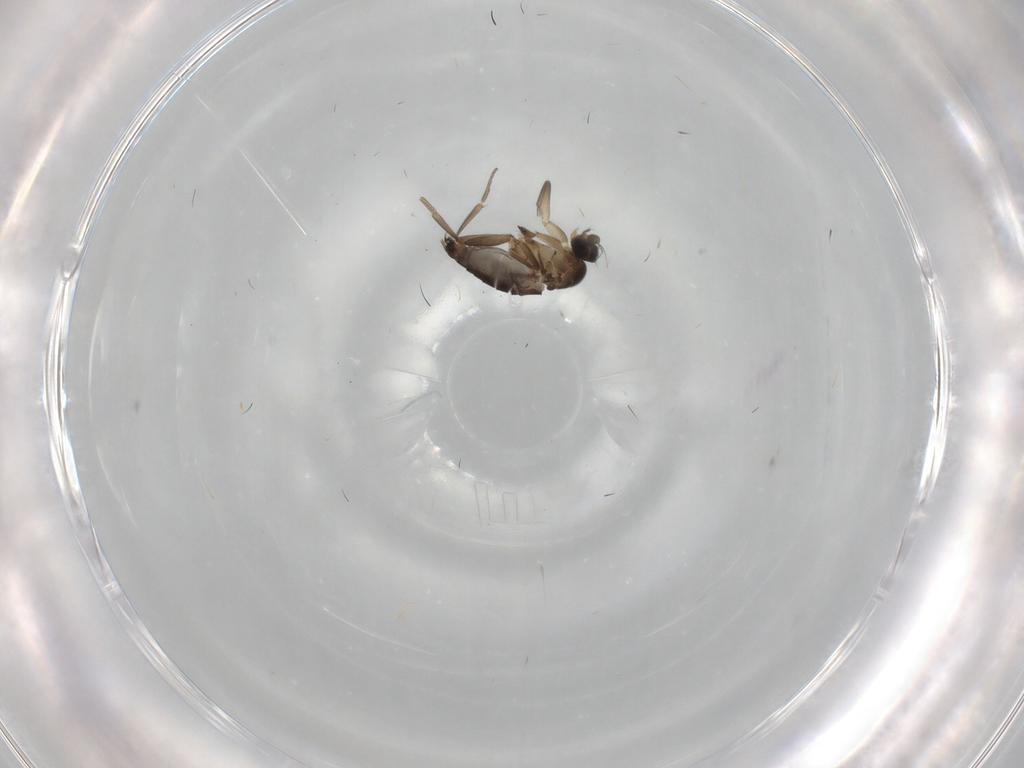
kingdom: Animalia
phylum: Arthropoda
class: Insecta
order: Diptera
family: Phoridae
